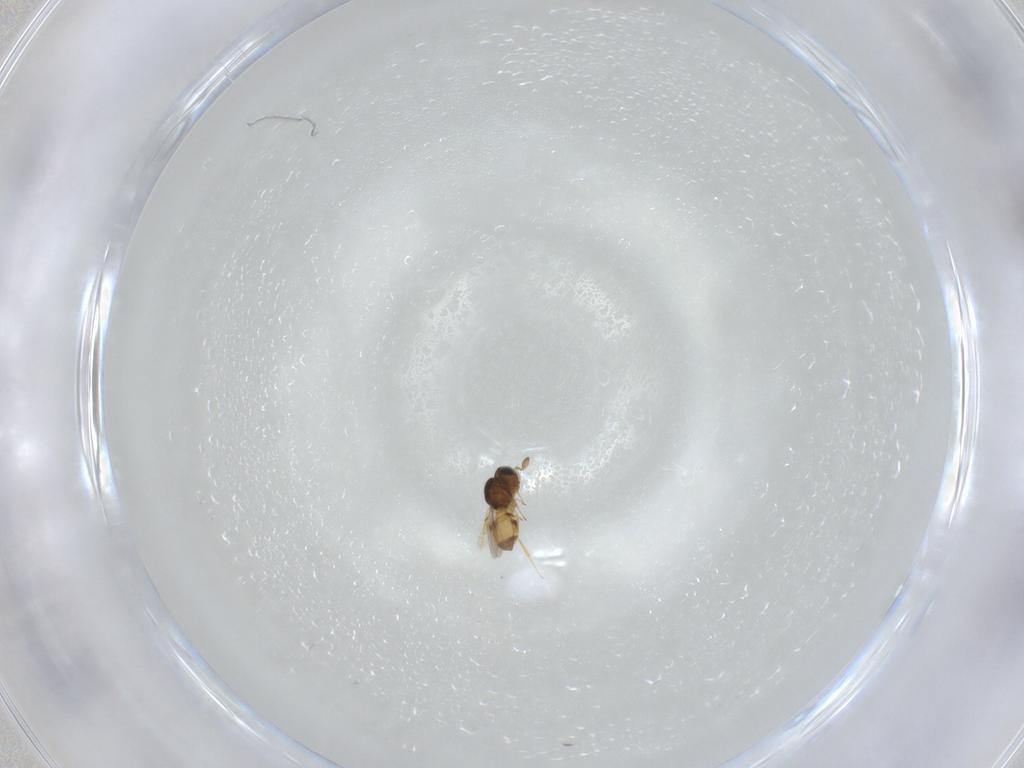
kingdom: Animalia
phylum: Arthropoda
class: Insecta
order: Hymenoptera
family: Scelionidae
